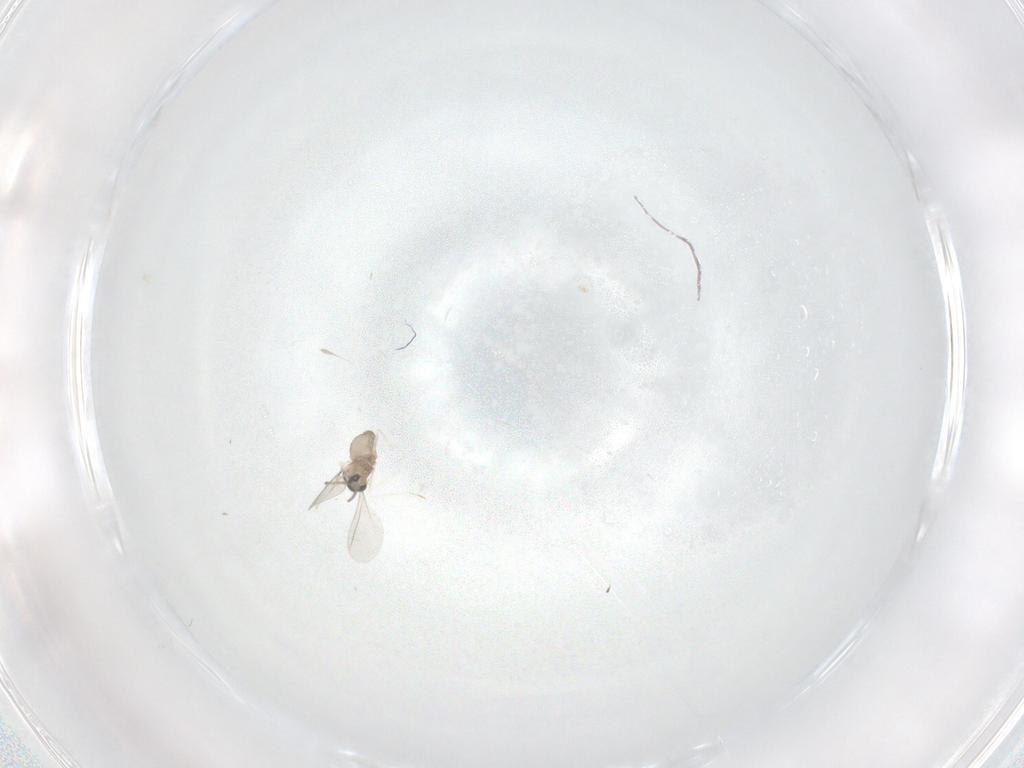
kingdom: Animalia
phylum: Arthropoda
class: Insecta
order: Diptera
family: Cecidomyiidae
